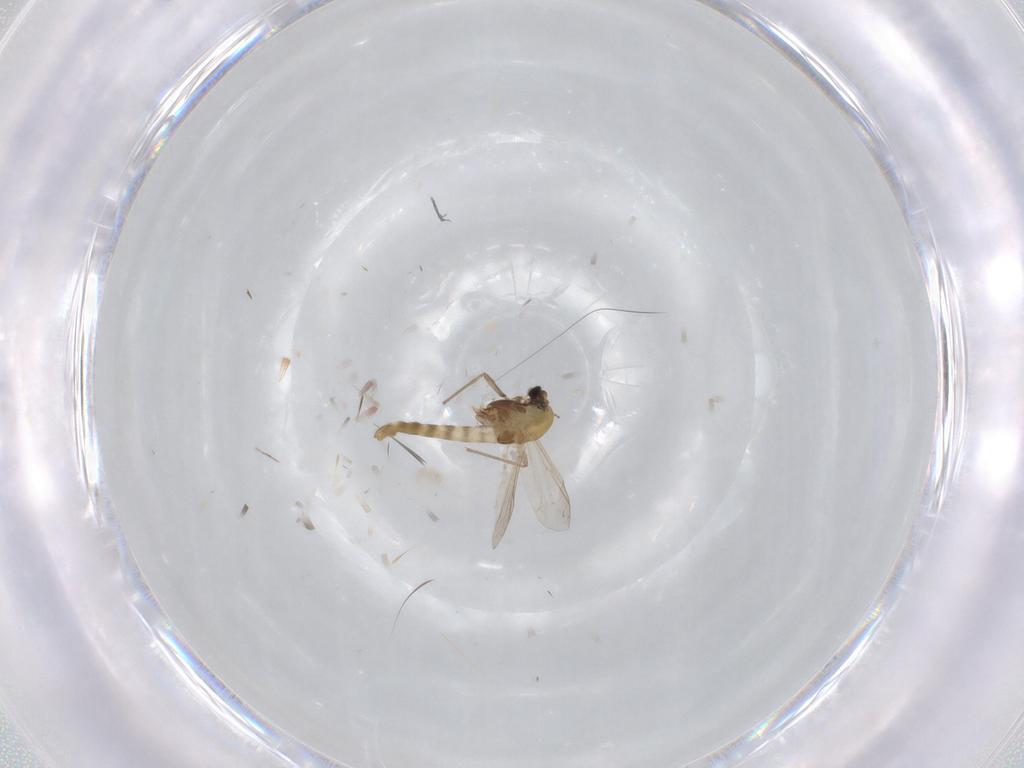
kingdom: Animalia
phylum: Arthropoda
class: Insecta
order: Diptera
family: Chironomidae
